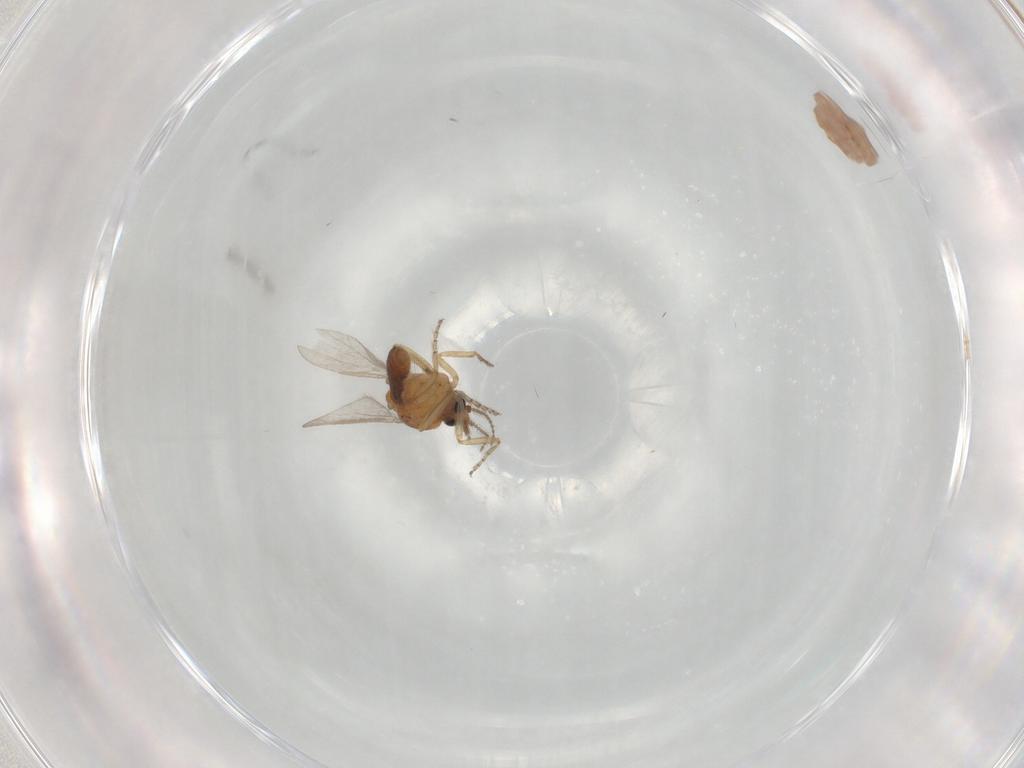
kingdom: Animalia
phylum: Arthropoda
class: Insecta
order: Diptera
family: Ceratopogonidae
